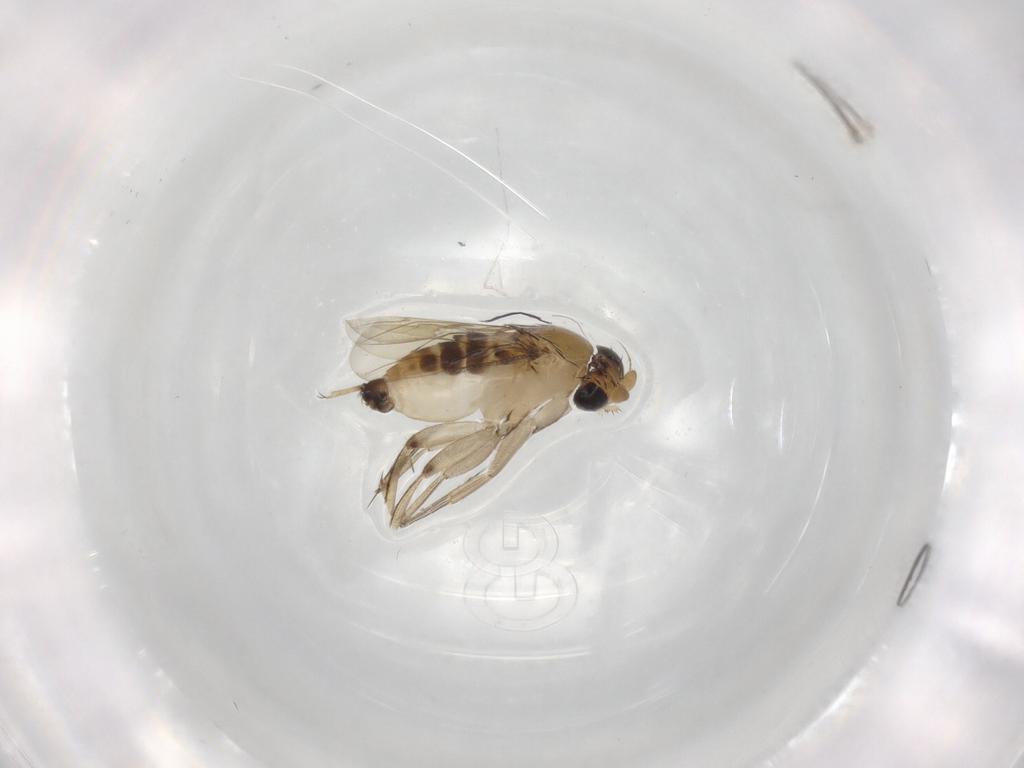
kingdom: Animalia
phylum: Arthropoda
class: Insecta
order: Diptera
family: Phoridae
